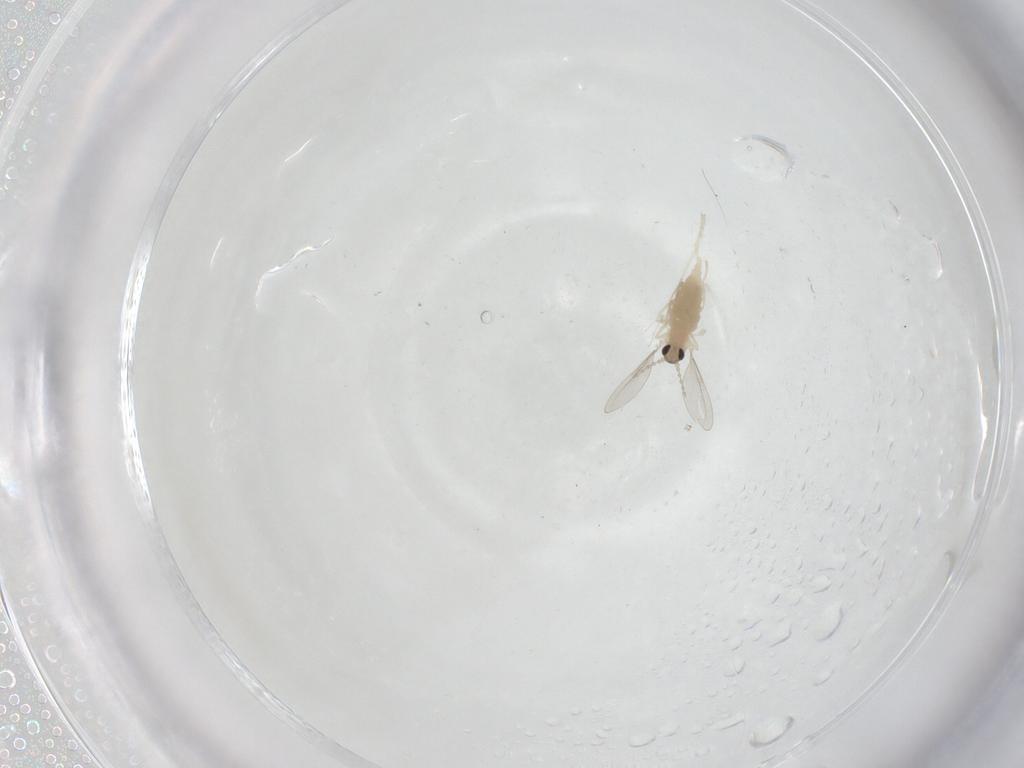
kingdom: Animalia
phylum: Arthropoda
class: Insecta
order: Diptera
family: Cecidomyiidae
